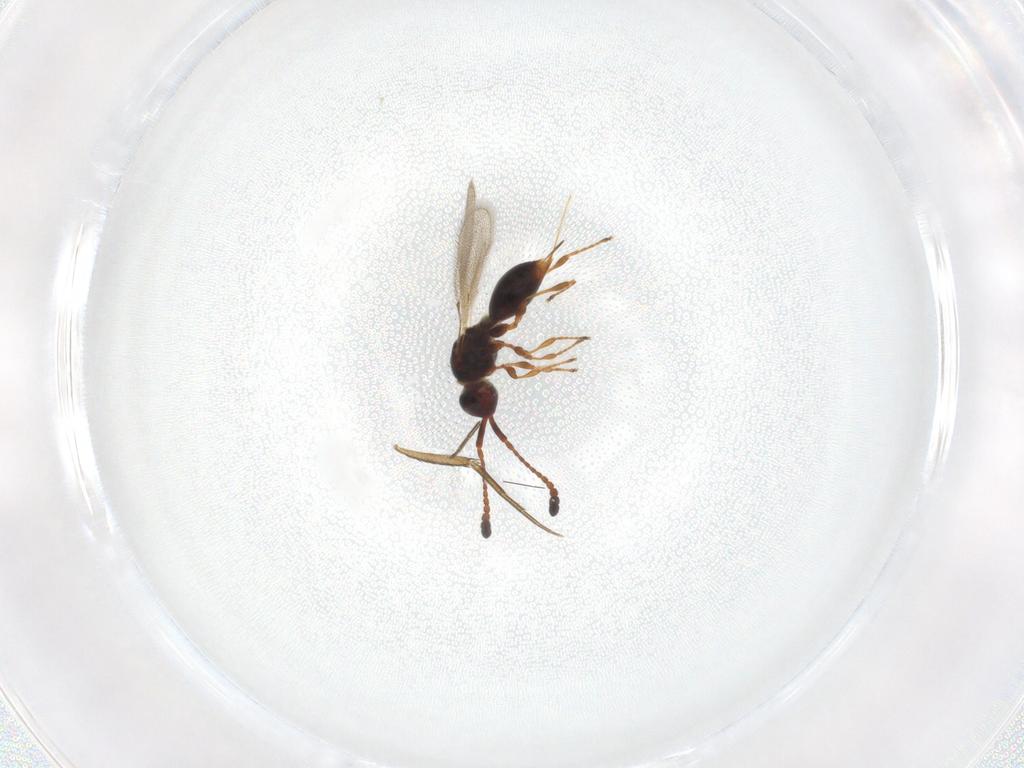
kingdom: Animalia
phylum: Arthropoda
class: Insecta
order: Hymenoptera
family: Diapriidae
